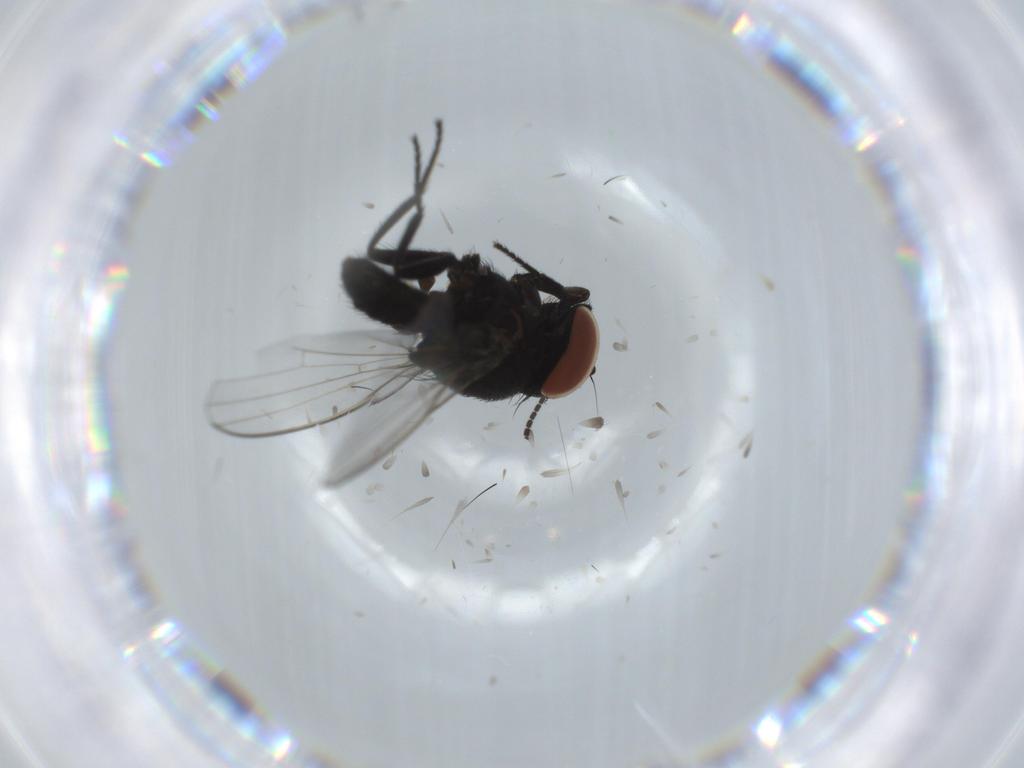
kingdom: Animalia
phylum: Arthropoda
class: Insecta
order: Diptera
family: Milichiidae
